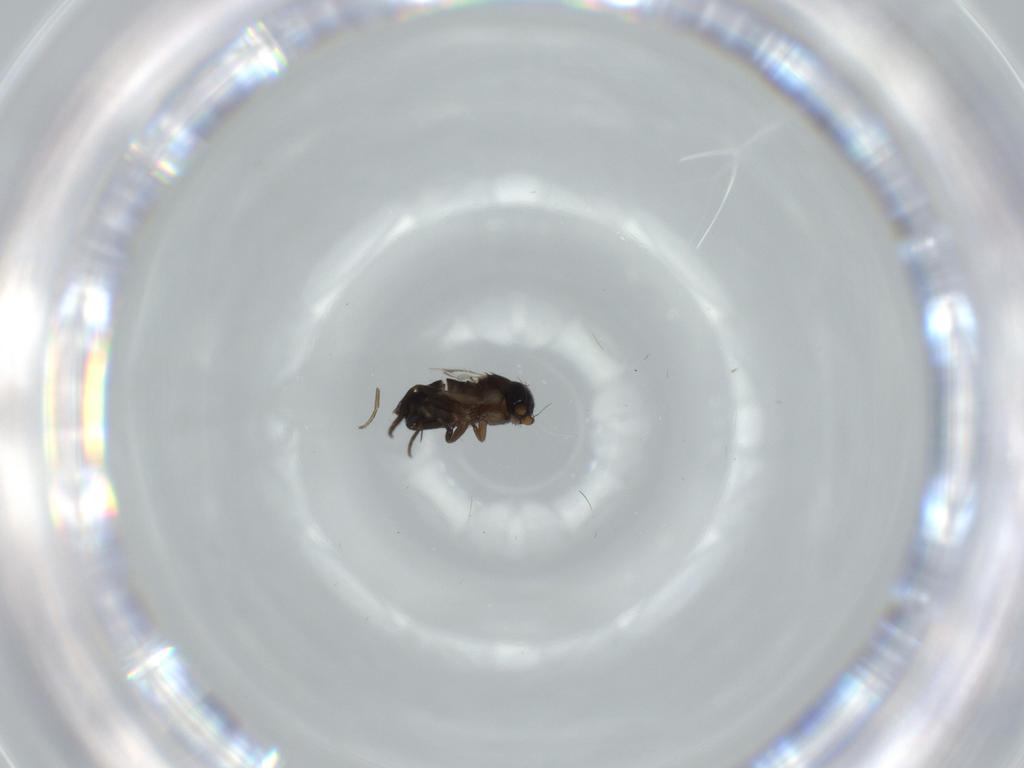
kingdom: Animalia
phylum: Arthropoda
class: Insecta
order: Diptera
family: Phoridae
